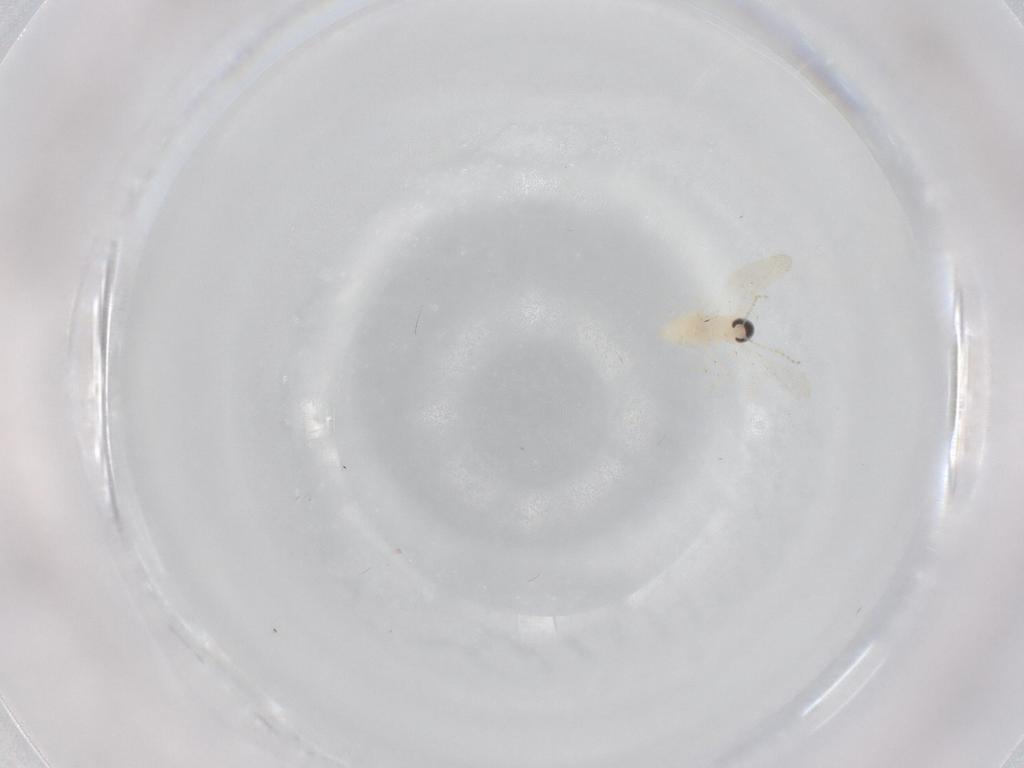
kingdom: Animalia
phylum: Arthropoda
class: Insecta
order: Diptera
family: Cecidomyiidae
